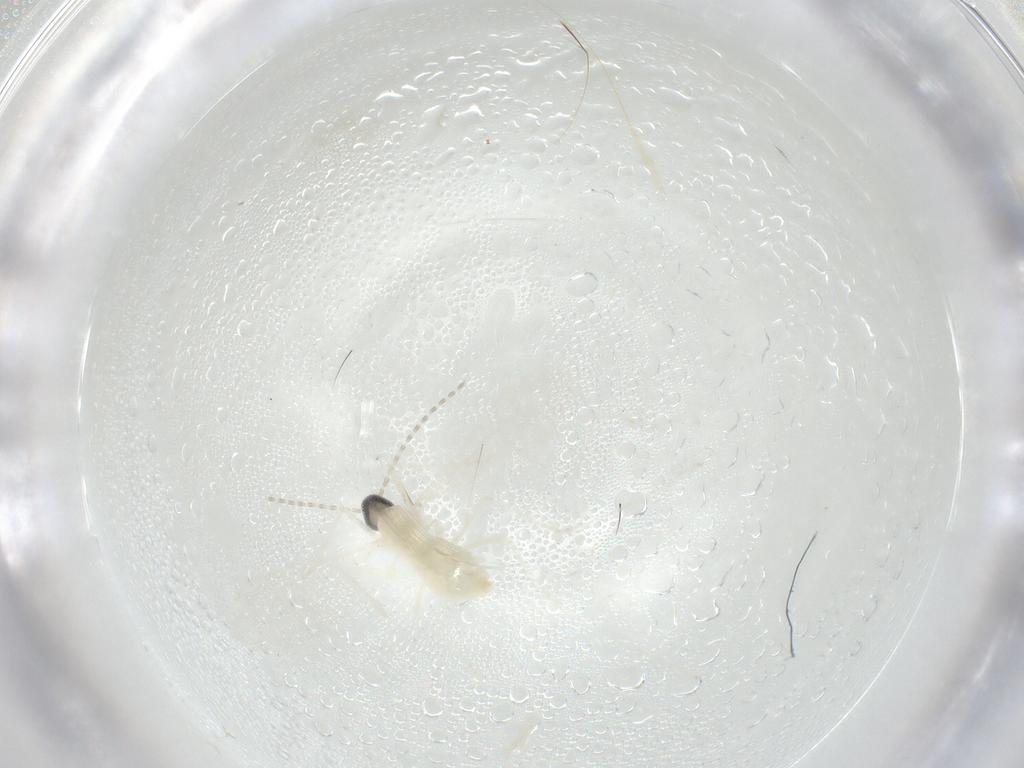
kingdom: Animalia
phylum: Arthropoda
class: Insecta
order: Diptera
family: Cecidomyiidae
